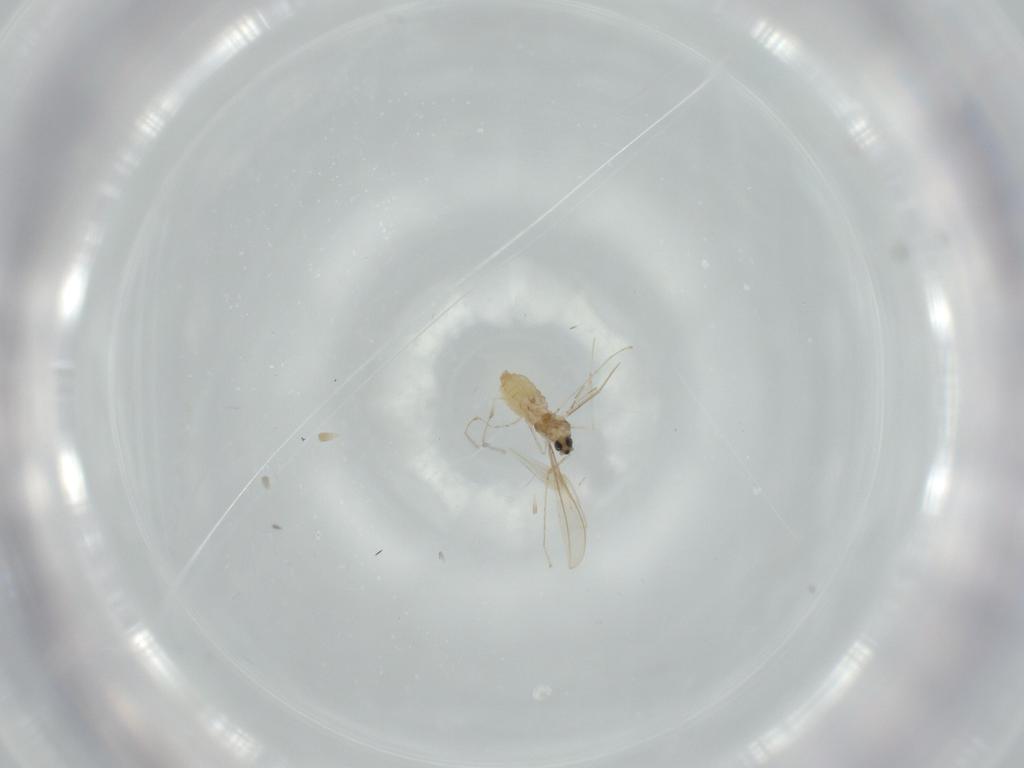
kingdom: Animalia
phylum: Arthropoda
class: Insecta
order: Diptera
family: Cecidomyiidae
